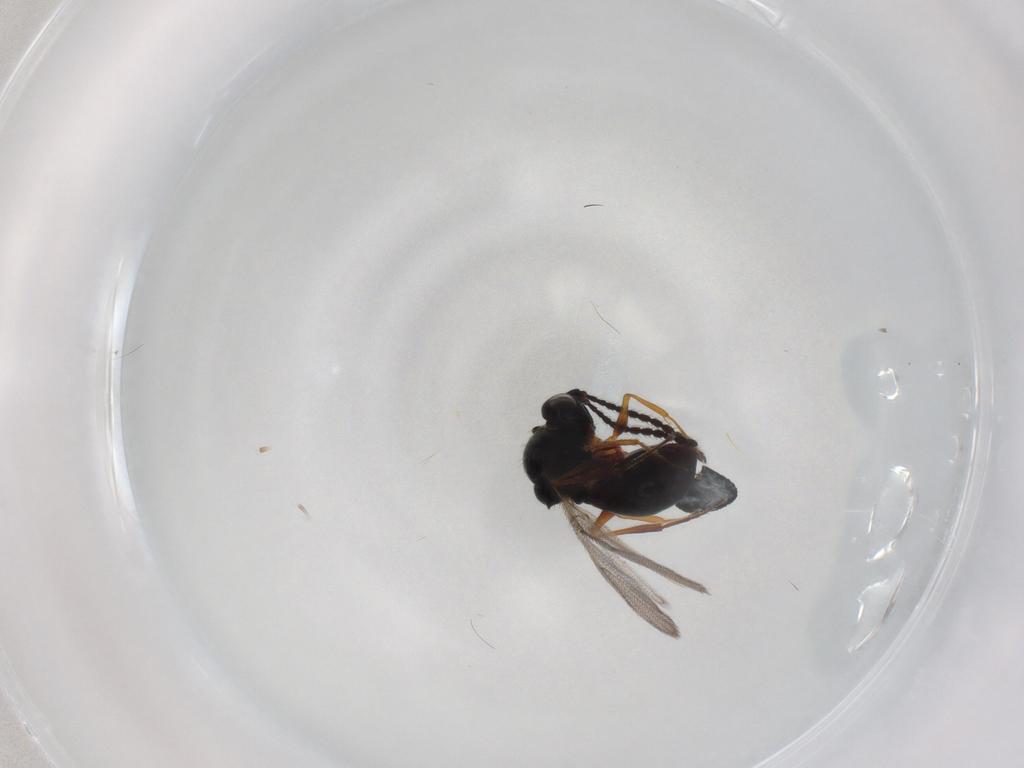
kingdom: Animalia
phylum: Arthropoda
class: Insecta
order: Hymenoptera
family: Formicidae
